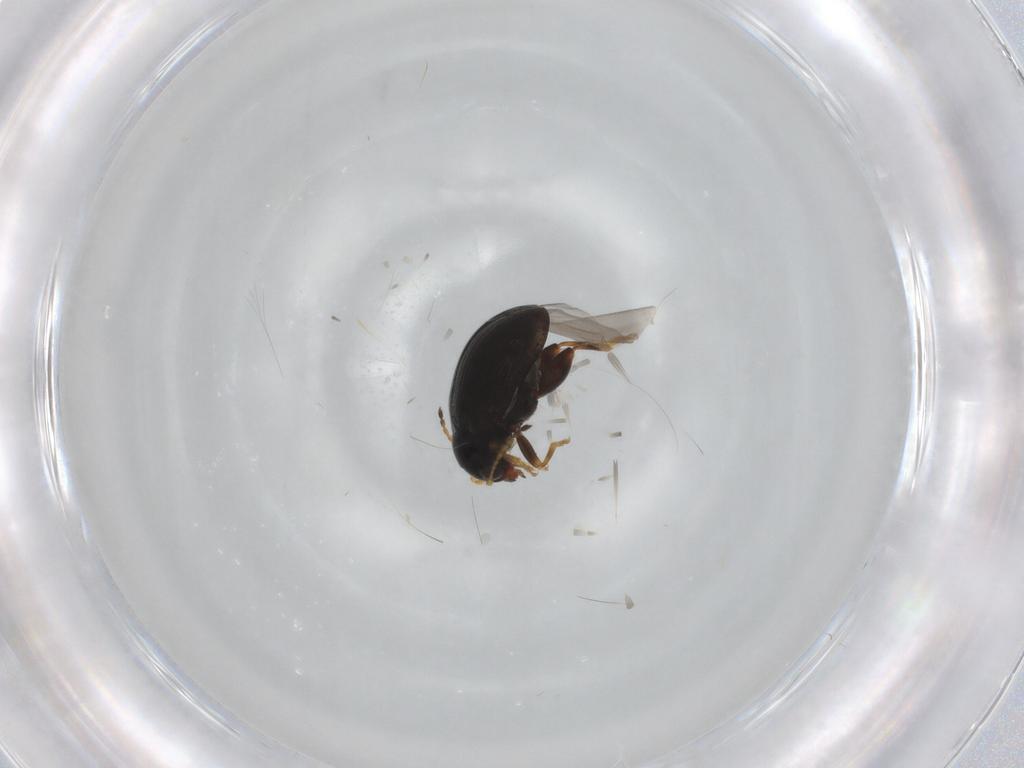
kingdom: Animalia
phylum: Arthropoda
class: Insecta
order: Coleoptera
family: Chrysomelidae
